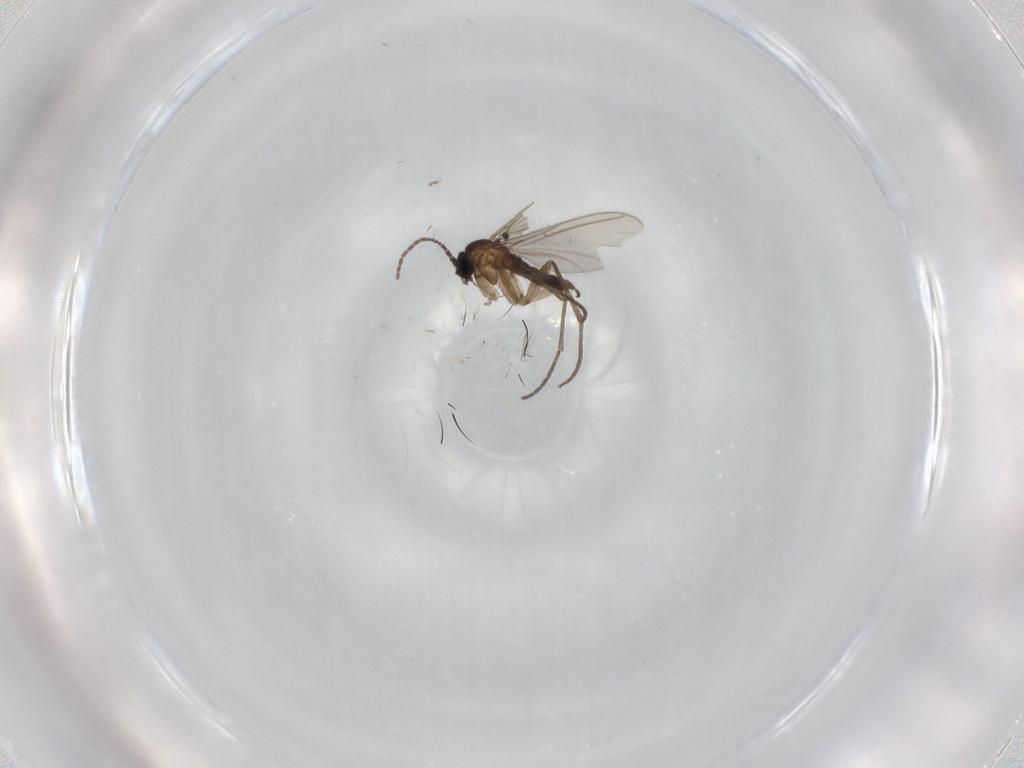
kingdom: Animalia
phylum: Arthropoda
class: Insecta
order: Diptera
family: Sciaridae
